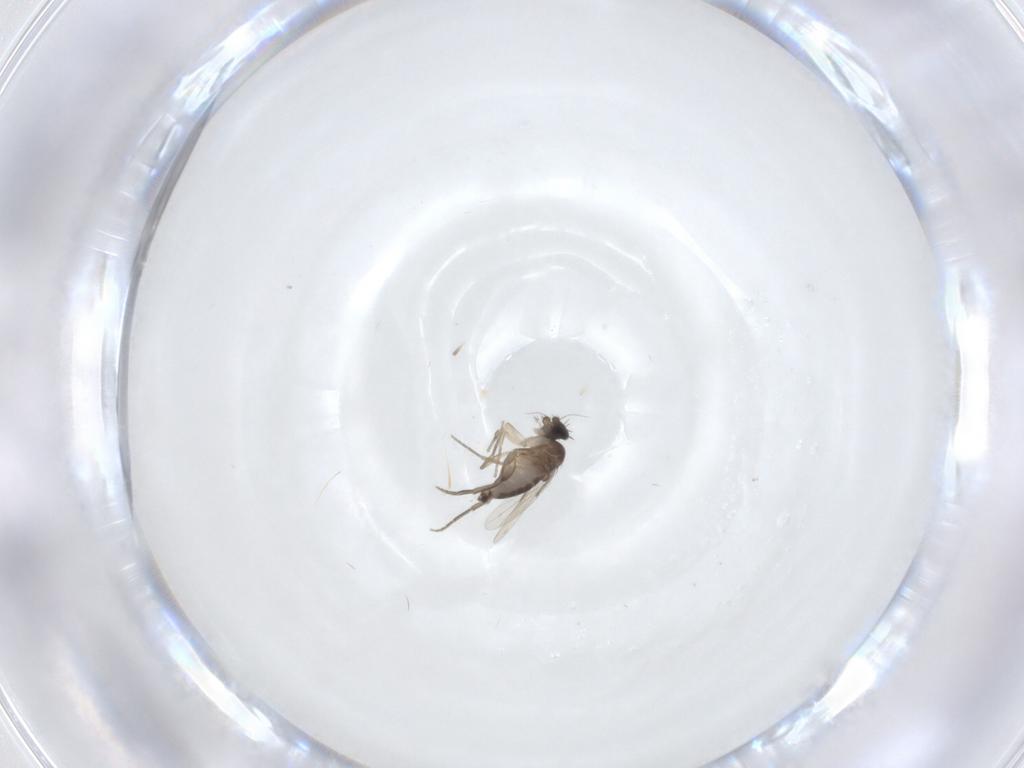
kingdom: Animalia
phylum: Arthropoda
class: Insecta
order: Diptera
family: Phoridae
